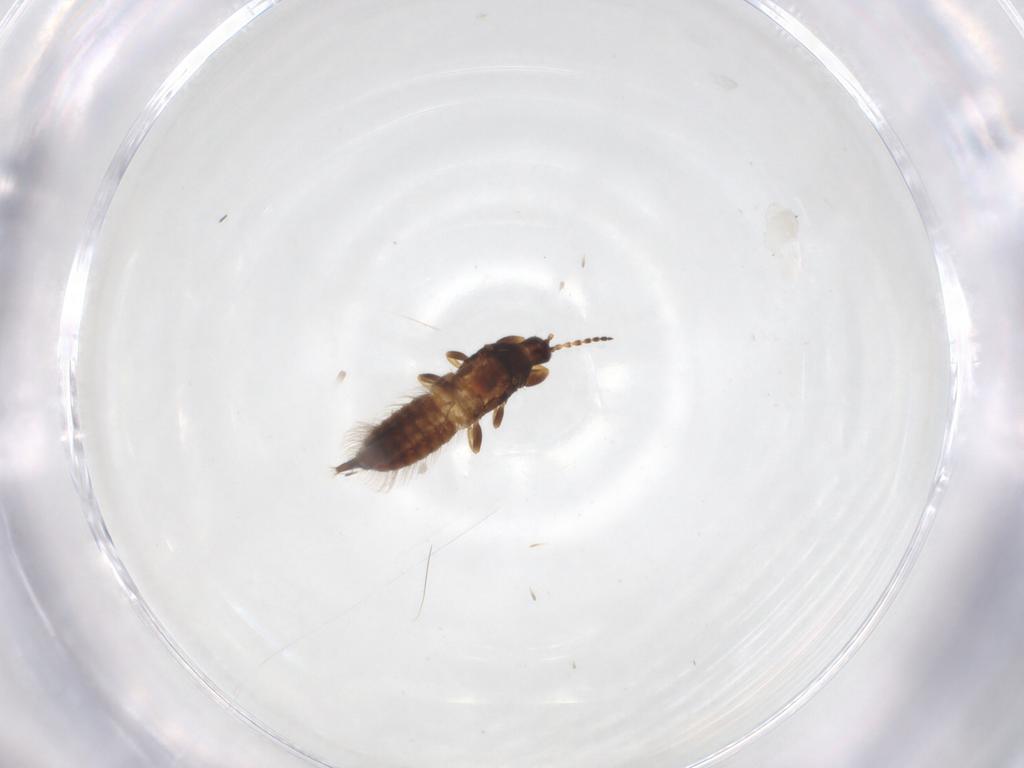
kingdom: Animalia
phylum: Arthropoda
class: Insecta
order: Thysanoptera
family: Phlaeothripidae
